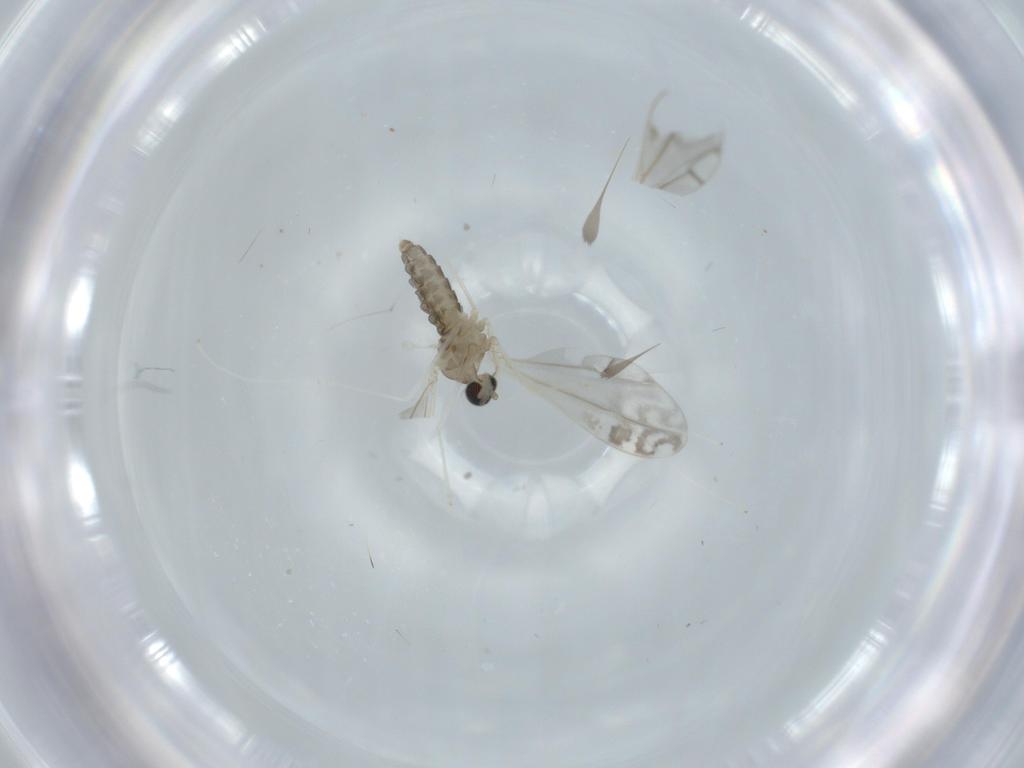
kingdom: Animalia
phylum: Arthropoda
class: Insecta
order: Diptera
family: Cecidomyiidae
